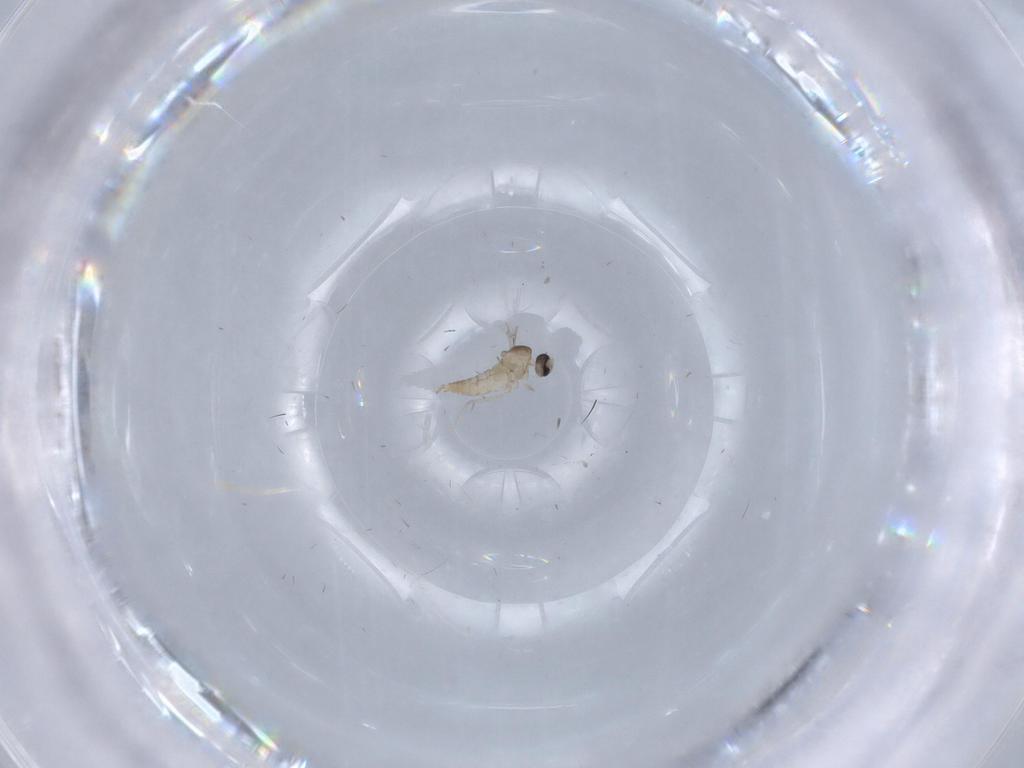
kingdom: Animalia
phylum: Arthropoda
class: Insecta
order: Diptera
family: Ceratopogonidae
